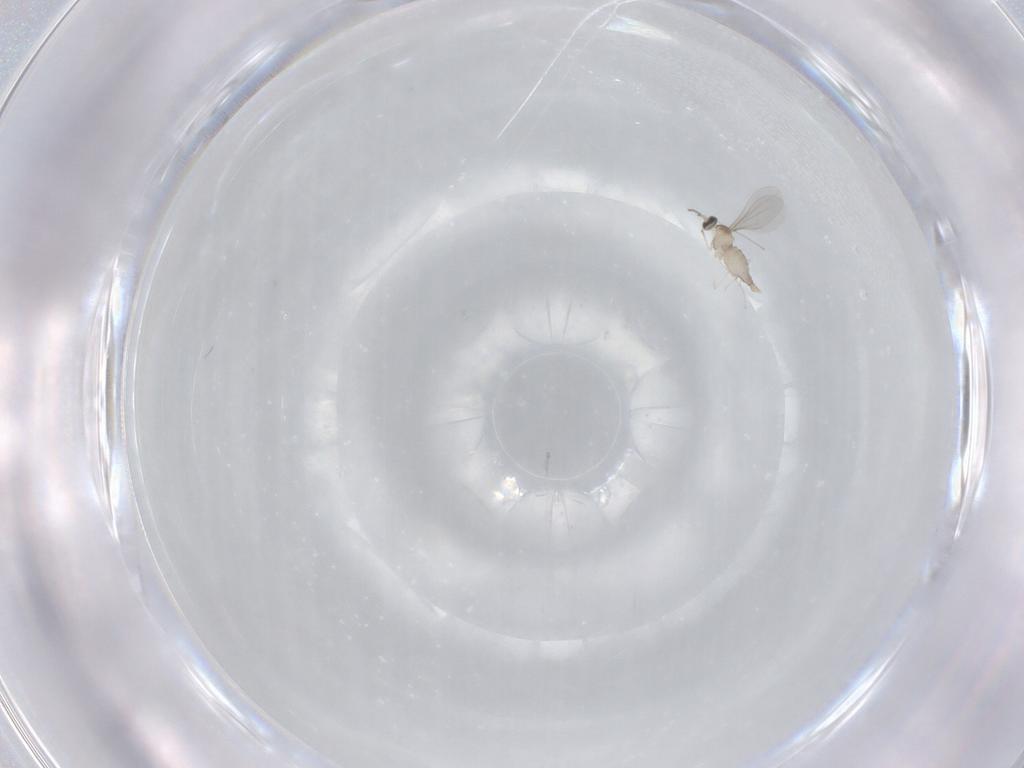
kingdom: Animalia
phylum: Arthropoda
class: Insecta
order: Diptera
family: Cecidomyiidae
